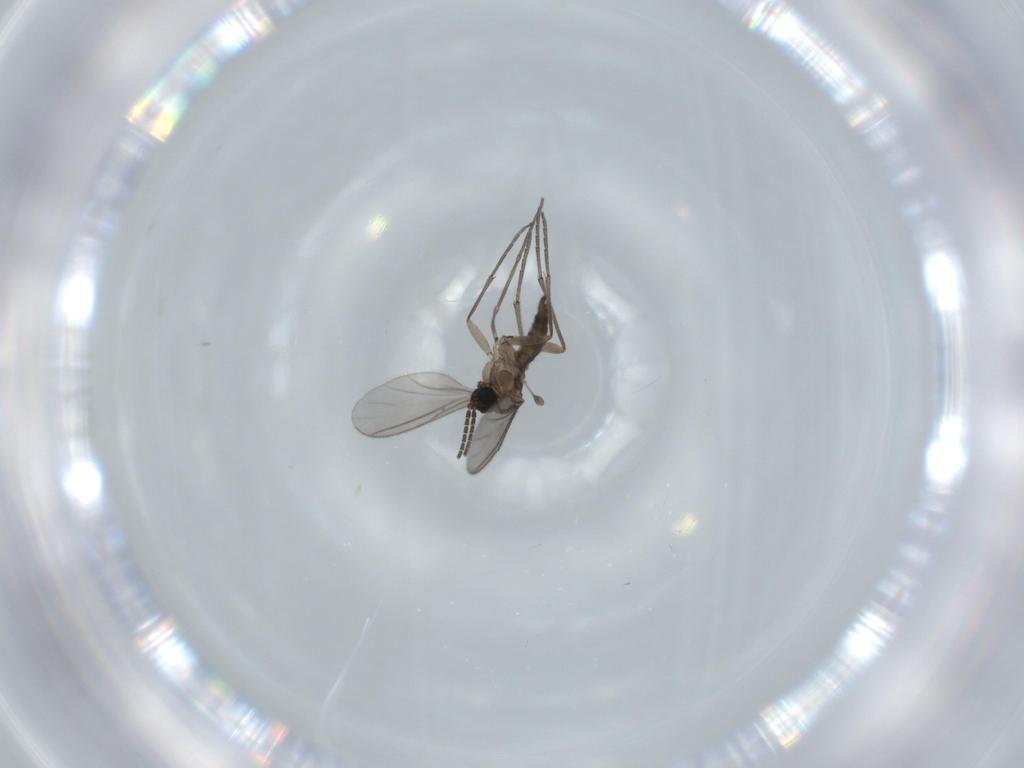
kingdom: Animalia
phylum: Arthropoda
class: Insecta
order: Diptera
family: Sciaridae
